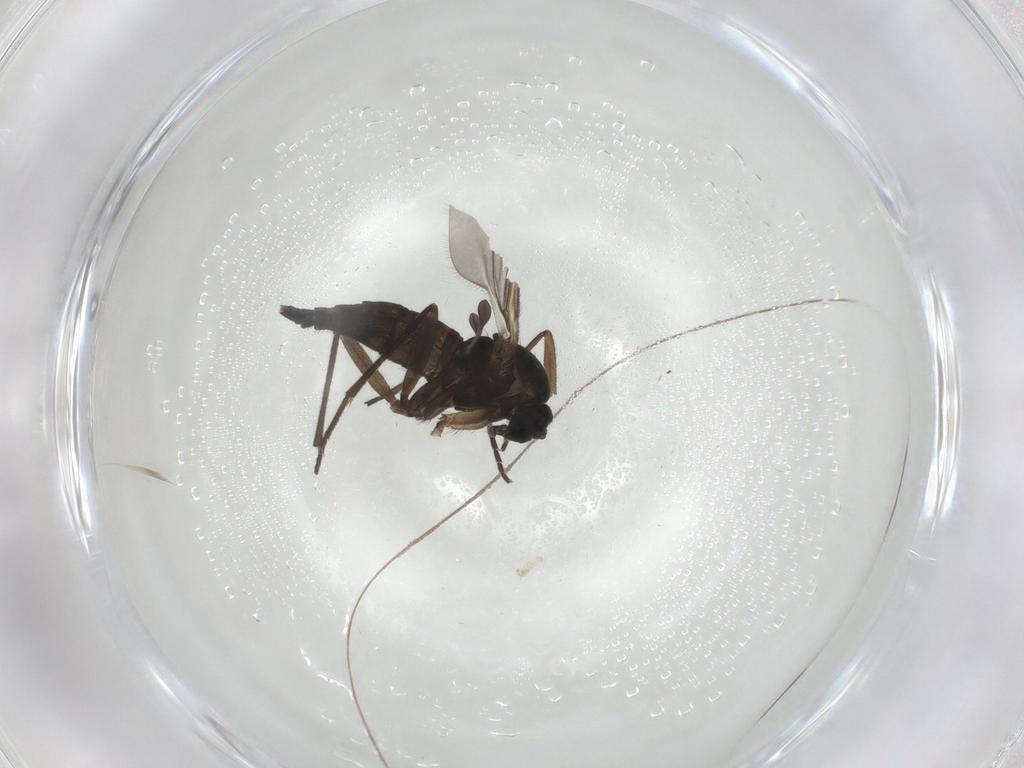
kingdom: Animalia
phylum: Arthropoda
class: Insecta
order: Diptera
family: Sciaridae
